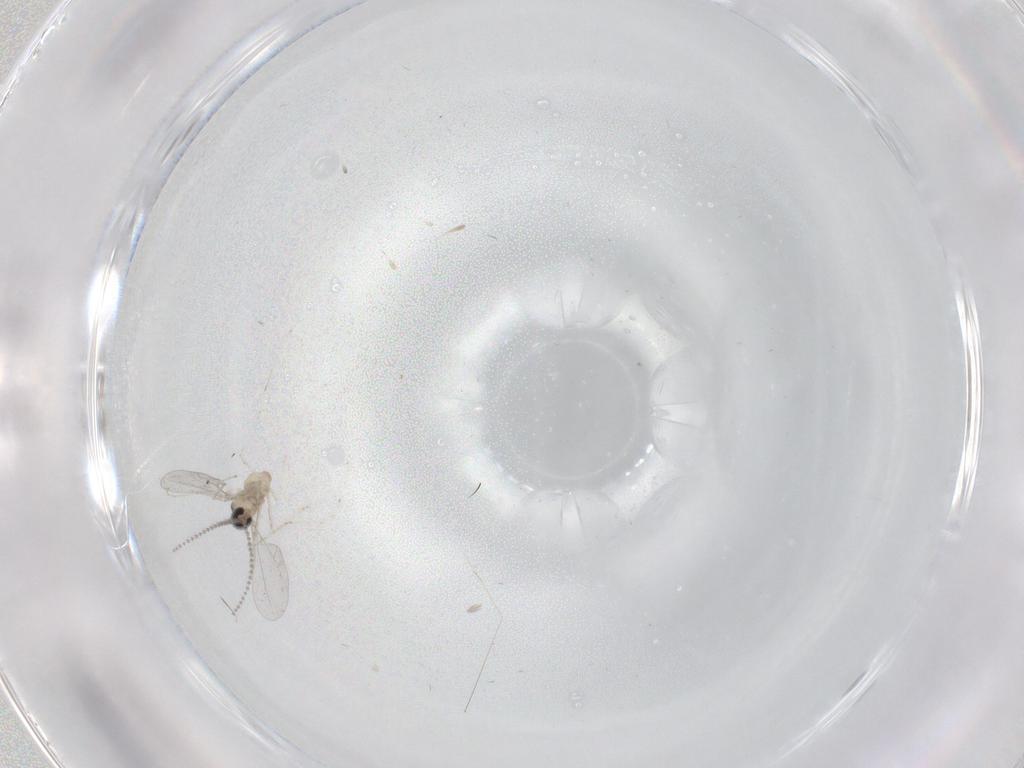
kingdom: Animalia
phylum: Arthropoda
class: Insecta
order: Diptera
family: Cecidomyiidae
